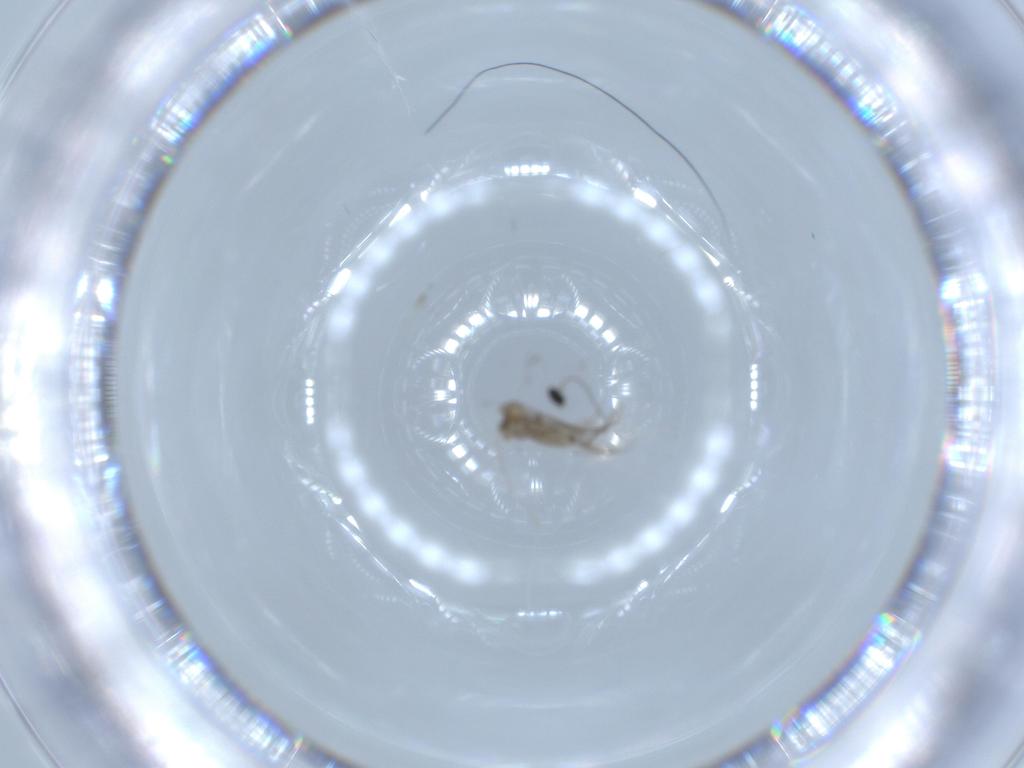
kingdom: Animalia
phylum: Arthropoda
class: Insecta
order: Diptera
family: Cecidomyiidae
